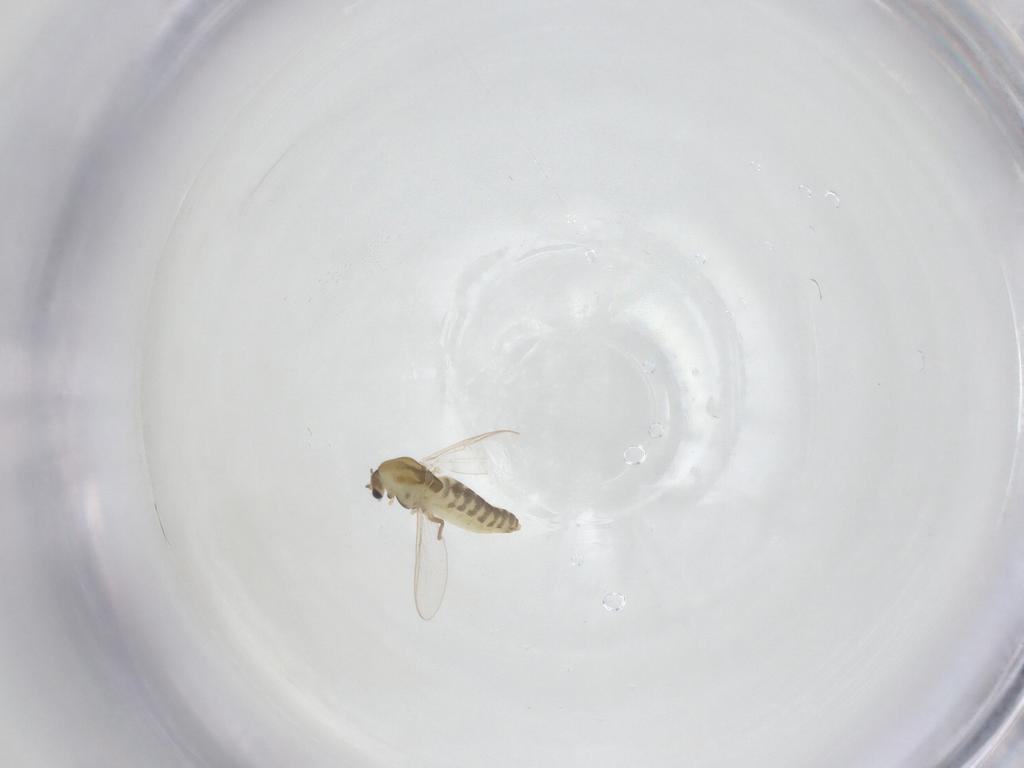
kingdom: Animalia
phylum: Arthropoda
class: Insecta
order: Diptera
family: Chironomidae
